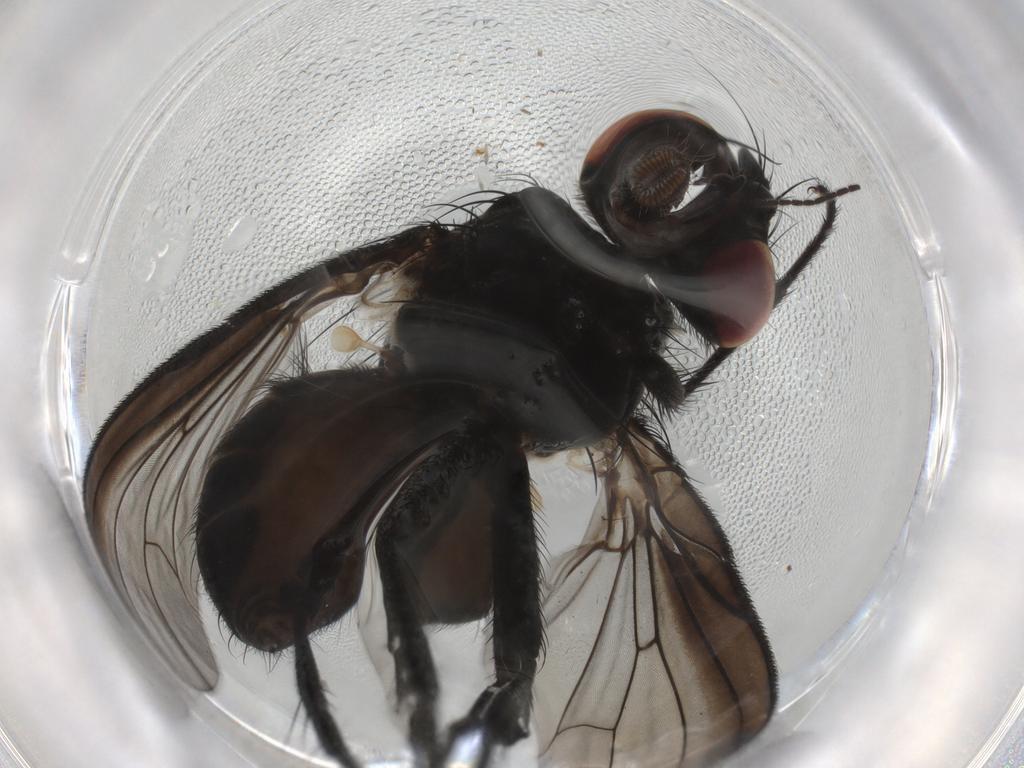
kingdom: Animalia
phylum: Arthropoda
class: Insecta
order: Diptera
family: Fannia
